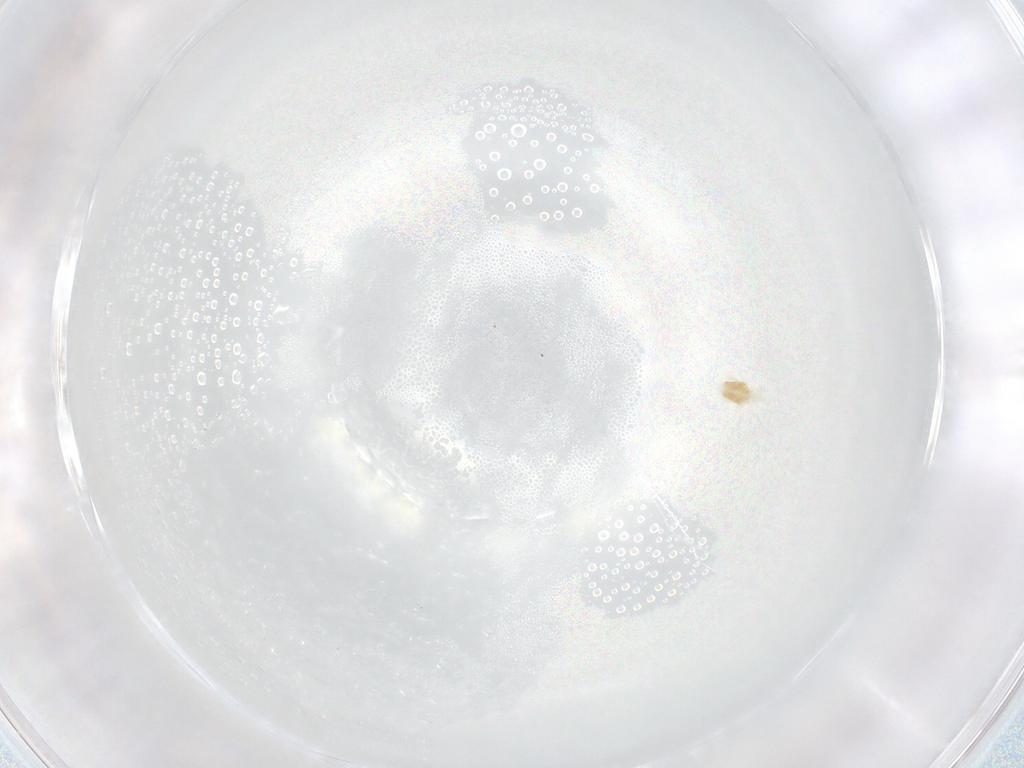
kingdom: Animalia
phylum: Arthropoda
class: Arachnida
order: Trombidiformes
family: Eupodidae
